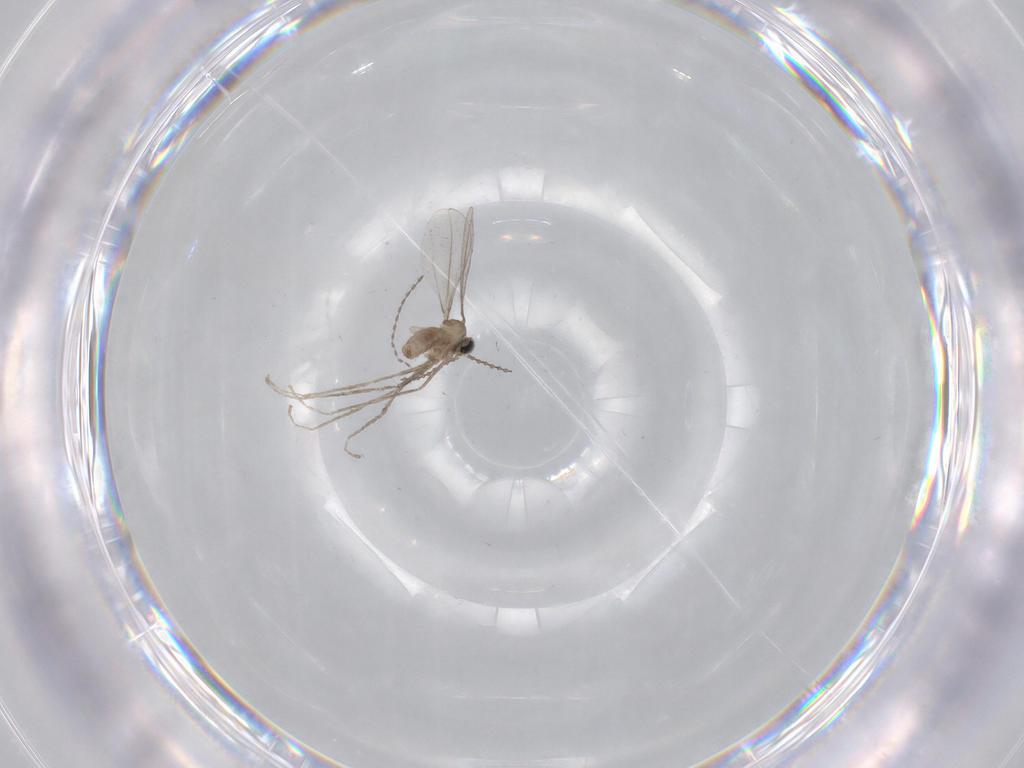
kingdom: Animalia
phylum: Arthropoda
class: Insecta
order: Diptera
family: Cecidomyiidae
